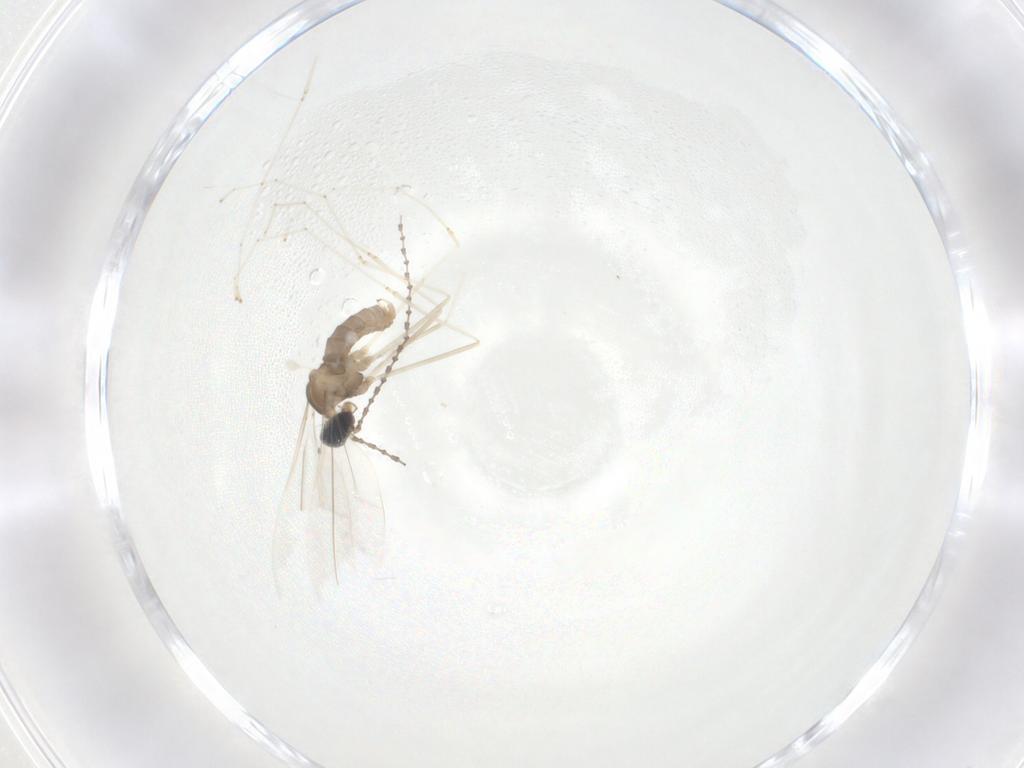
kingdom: Animalia
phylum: Arthropoda
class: Insecta
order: Diptera
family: Cecidomyiidae
